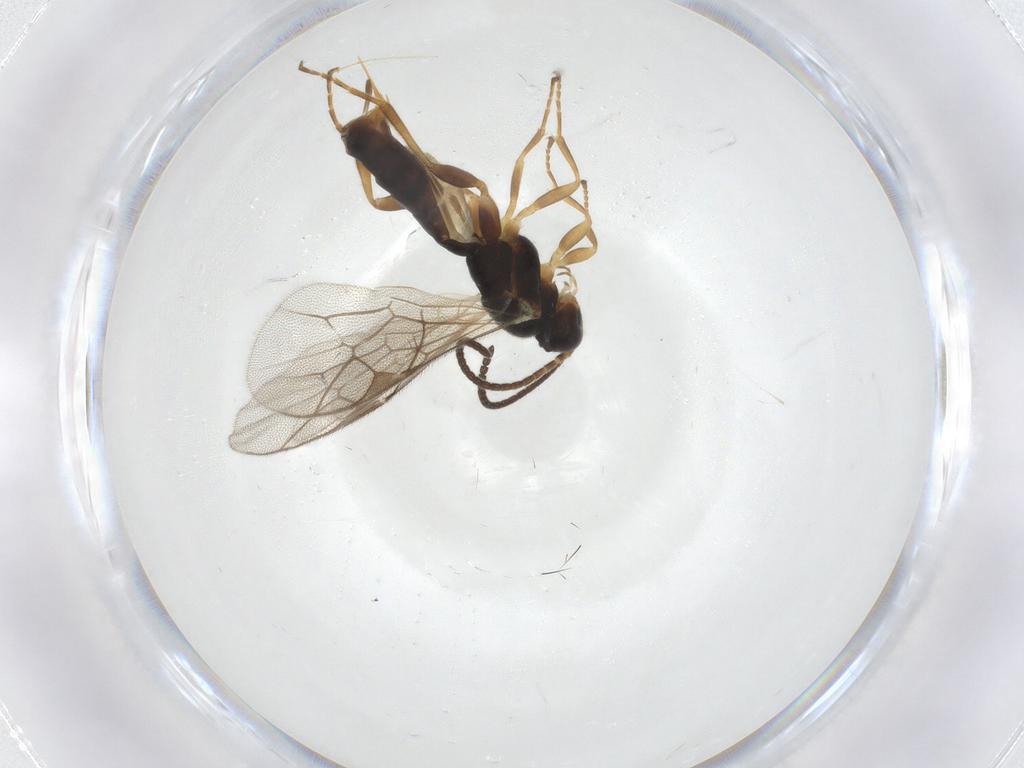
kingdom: Animalia
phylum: Arthropoda
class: Insecta
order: Hymenoptera
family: Ichneumonidae
